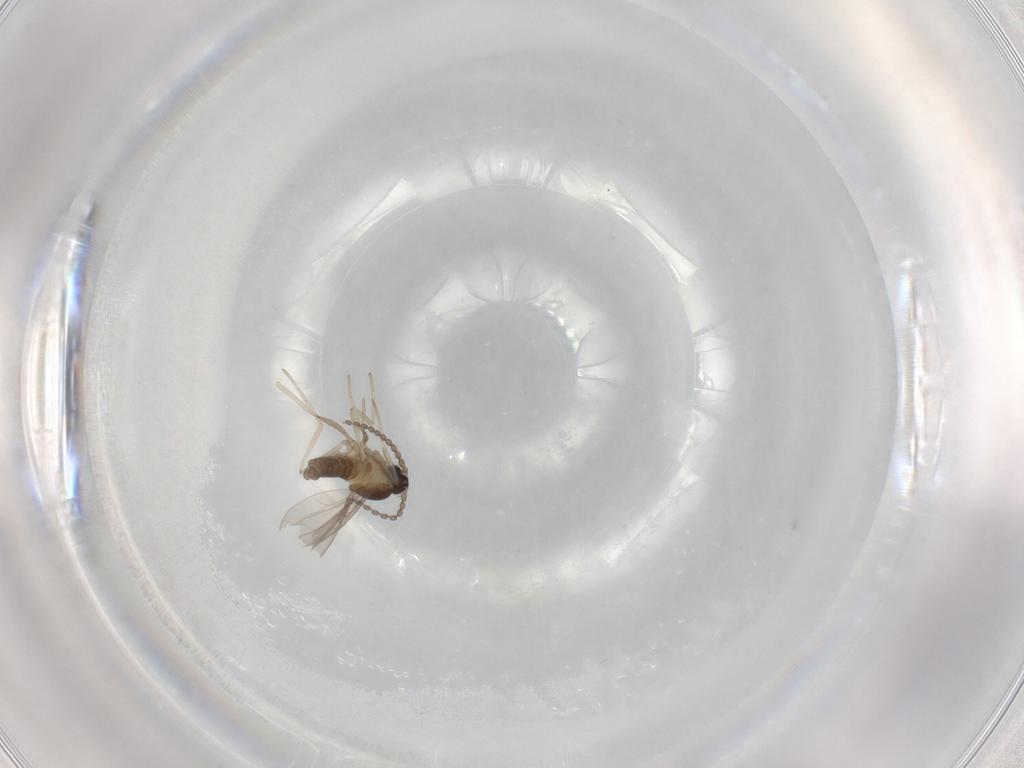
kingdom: Animalia
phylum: Arthropoda
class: Insecta
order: Diptera
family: Cecidomyiidae
